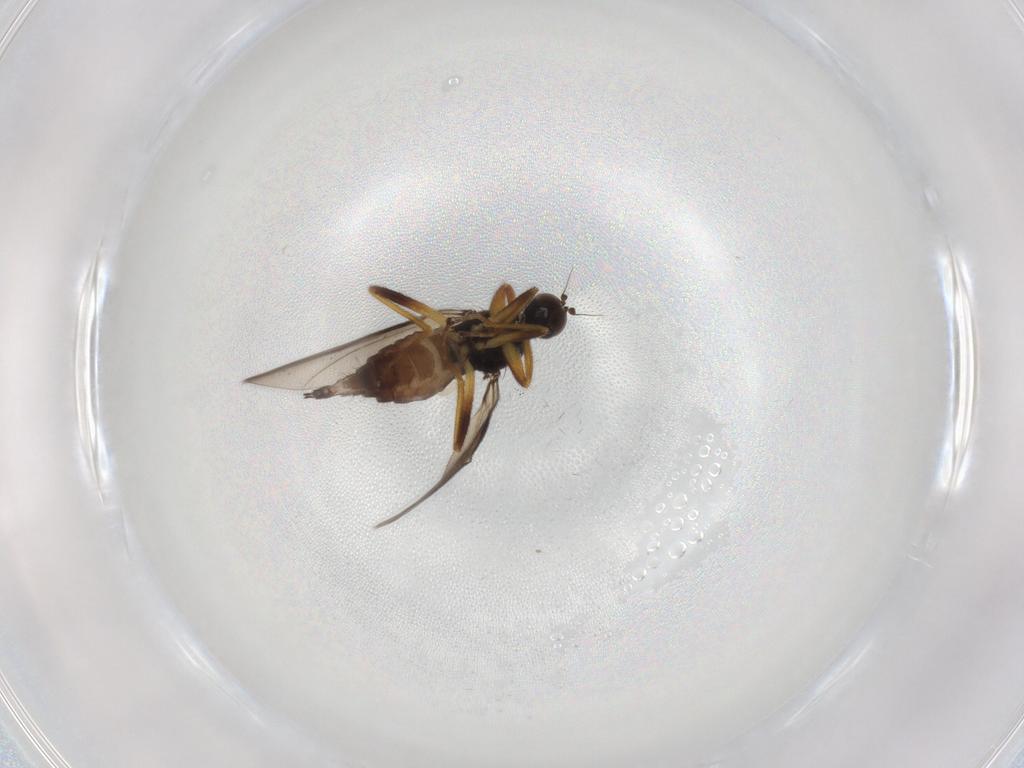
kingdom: Animalia
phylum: Arthropoda
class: Insecta
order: Diptera
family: Hybotidae
